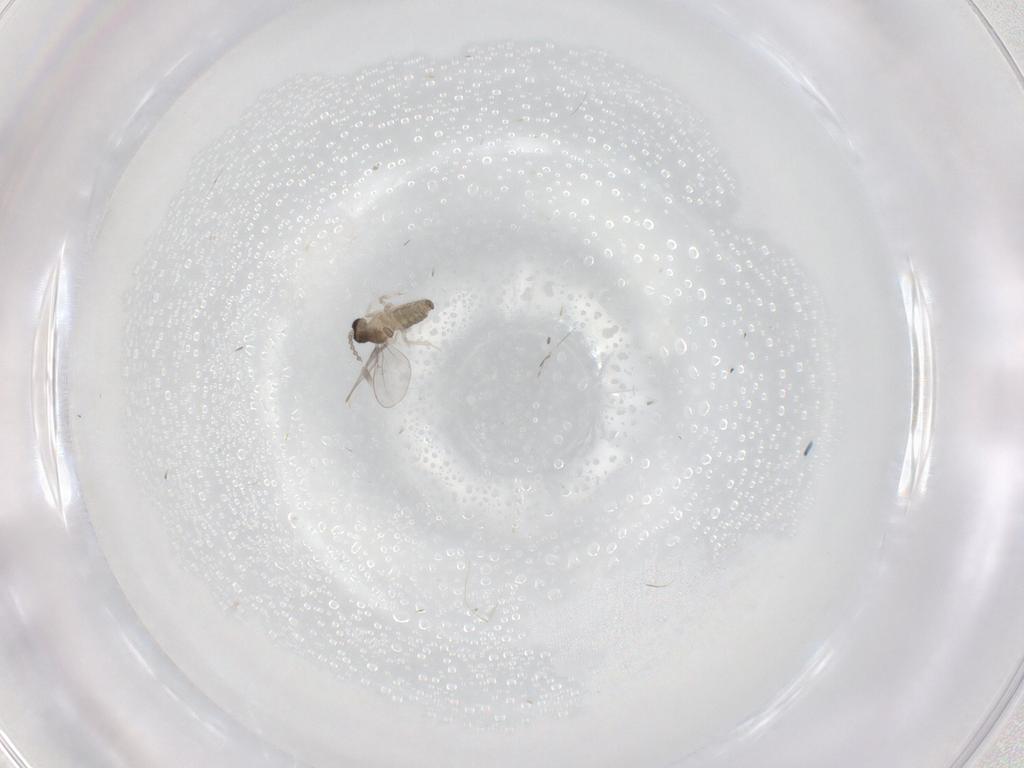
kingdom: Animalia
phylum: Arthropoda
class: Insecta
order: Diptera
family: Cecidomyiidae
